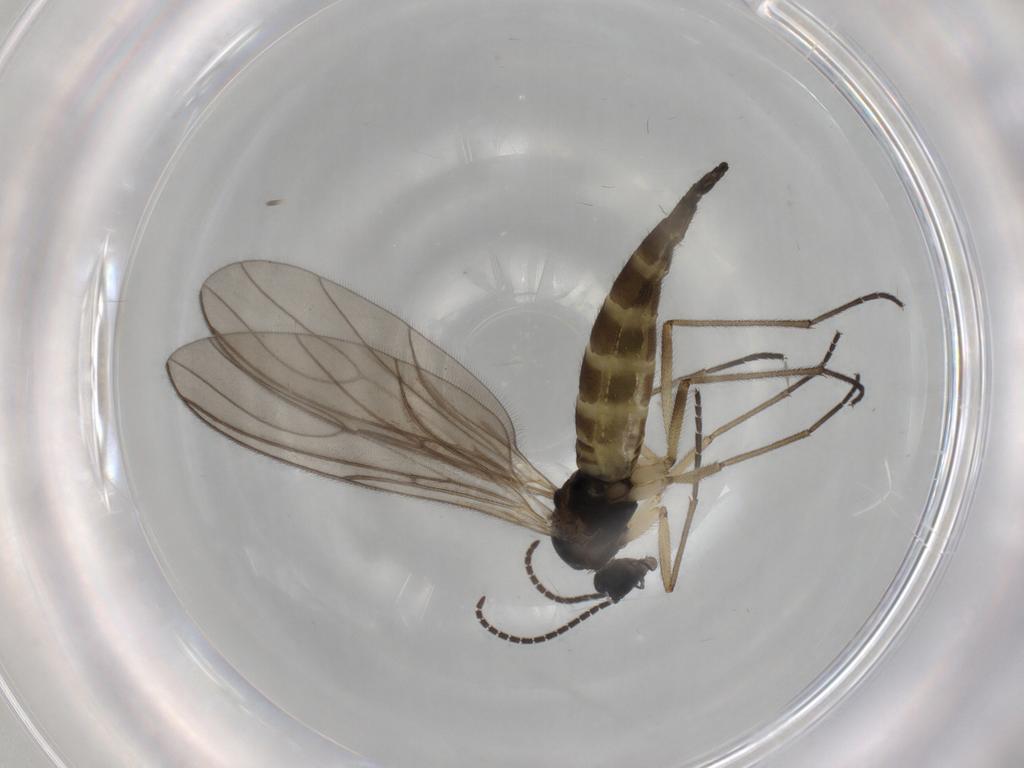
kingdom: Animalia
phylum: Arthropoda
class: Insecta
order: Diptera
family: Sciaridae
